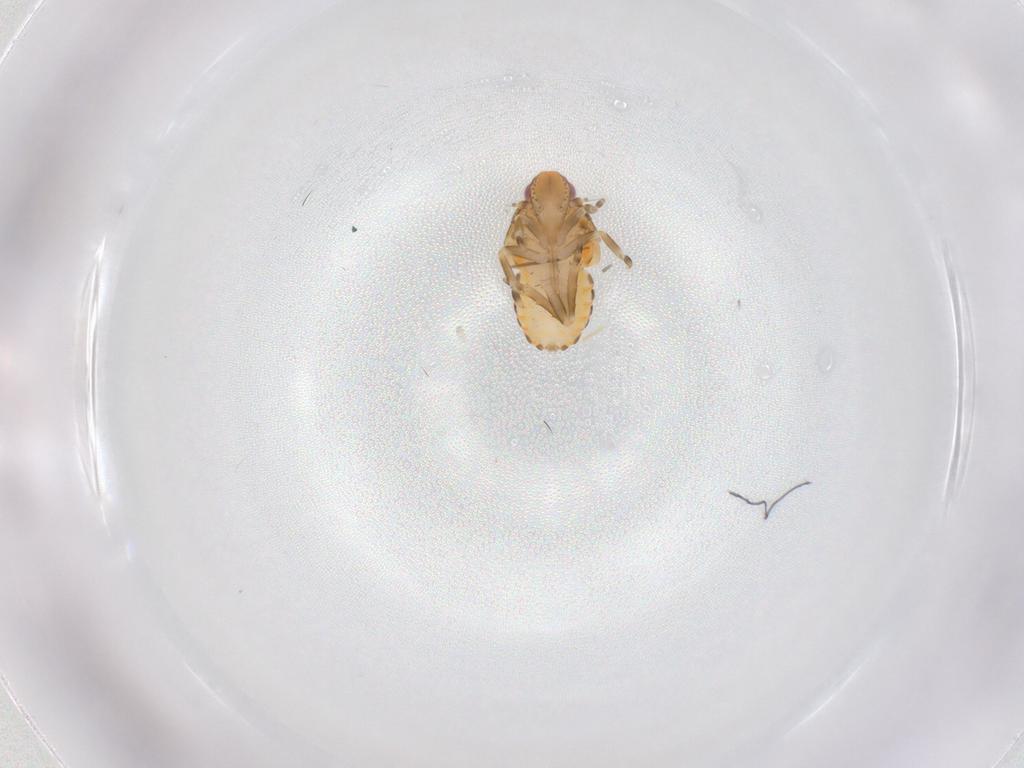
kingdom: Animalia
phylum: Arthropoda
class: Insecta
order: Hemiptera
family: Flatidae
